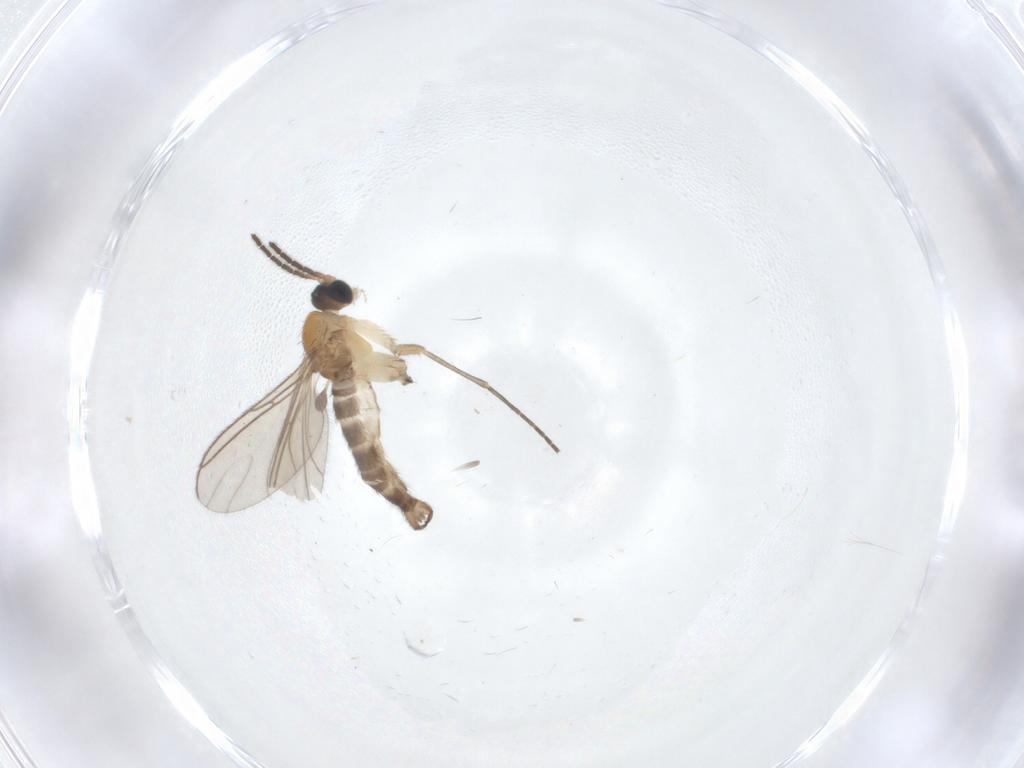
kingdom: Animalia
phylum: Arthropoda
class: Insecta
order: Diptera
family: Sciaridae
